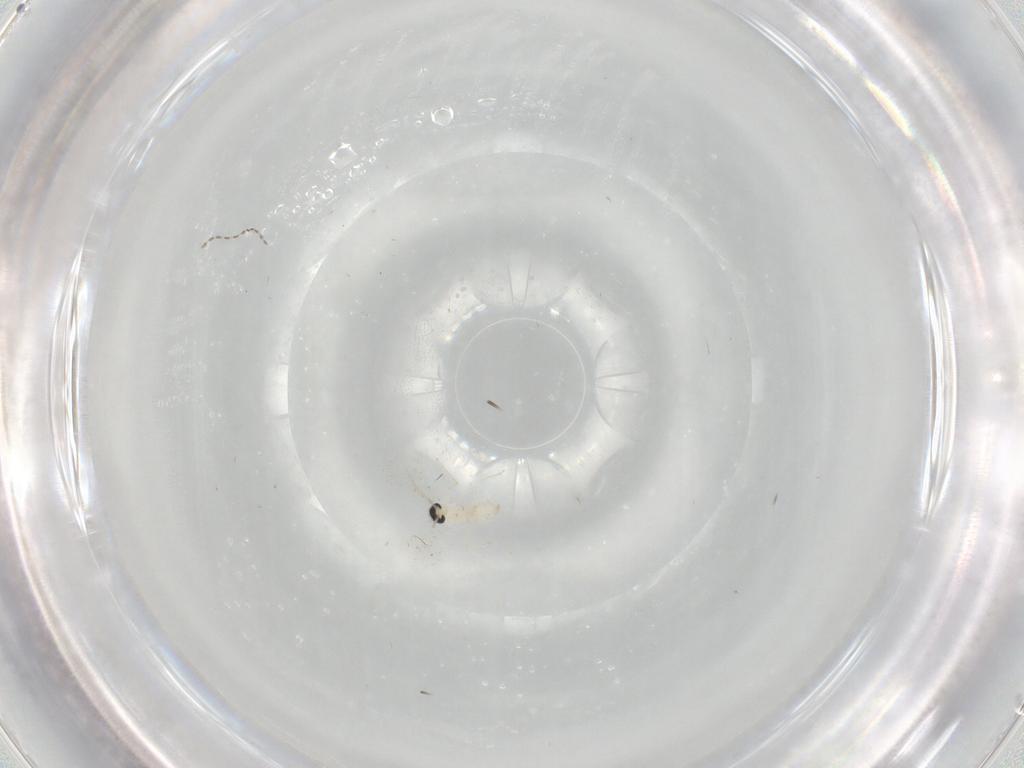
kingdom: Animalia
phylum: Arthropoda
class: Insecta
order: Diptera
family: Cecidomyiidae
